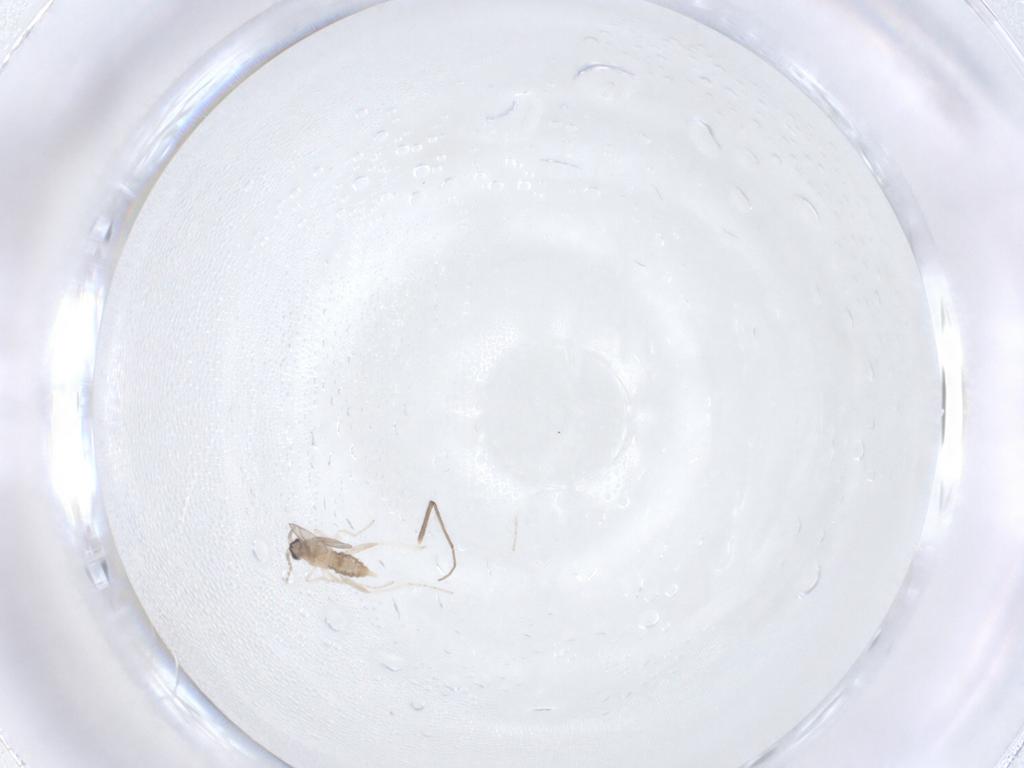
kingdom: Animalia
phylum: Arthropoda
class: Insecta
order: Diptera
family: Cecidomyiidae
